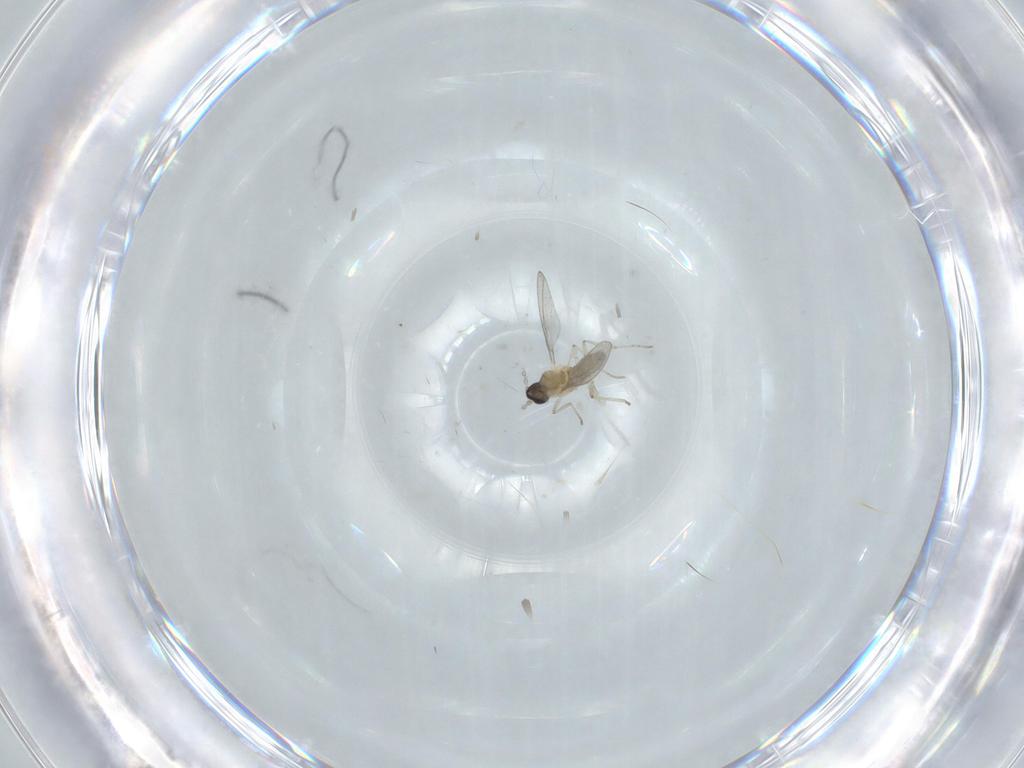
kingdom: Animalia
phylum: Arthropoda
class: Insecta
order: Diptera
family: Cecidomyiidae
